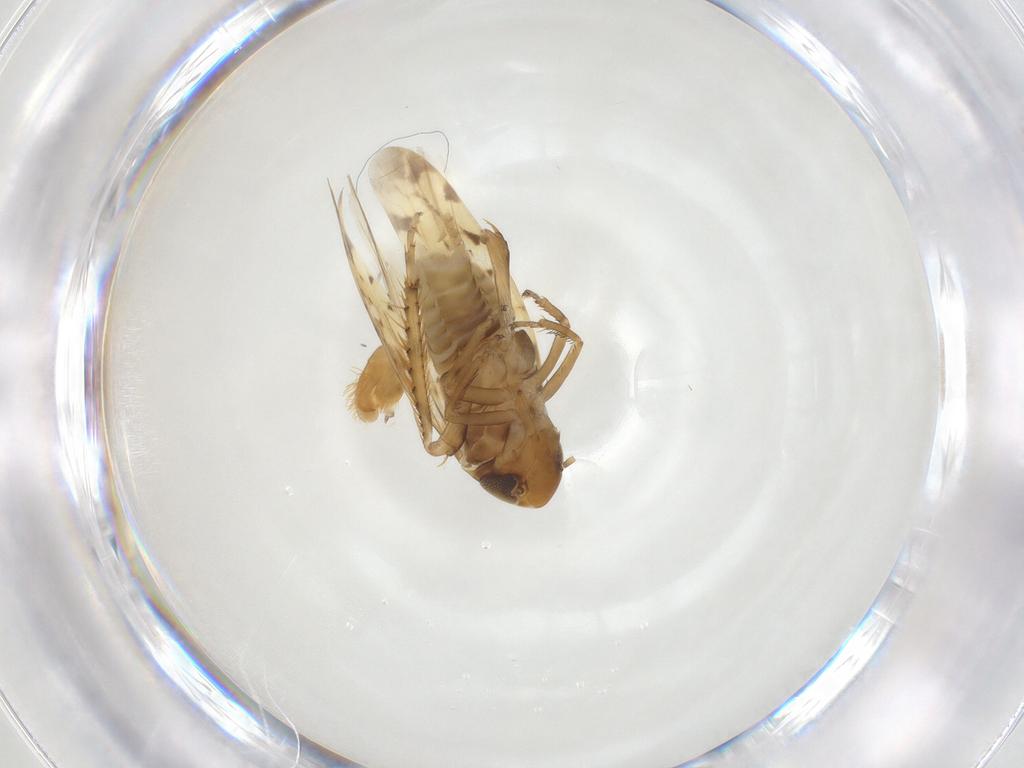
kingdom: Animalia
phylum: Arthropoda
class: Insecta
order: Hemiptera
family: Cicadellidae
